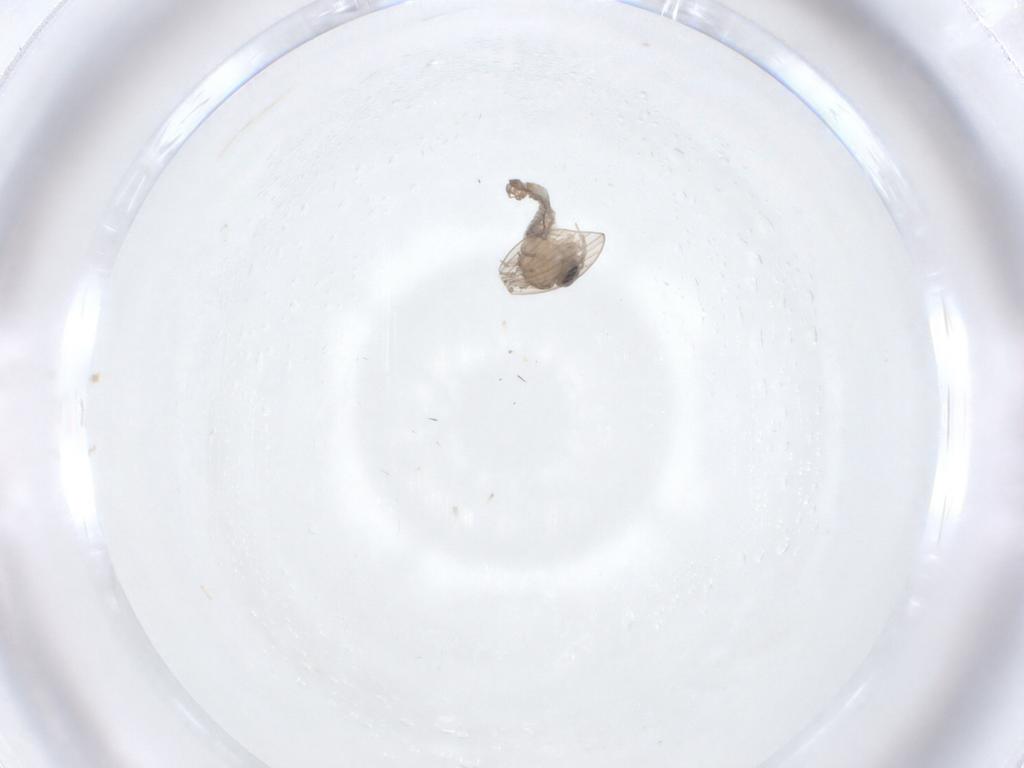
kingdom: Animalia
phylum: Arthropoda
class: Insecta
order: Diptera
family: Psychodidae
